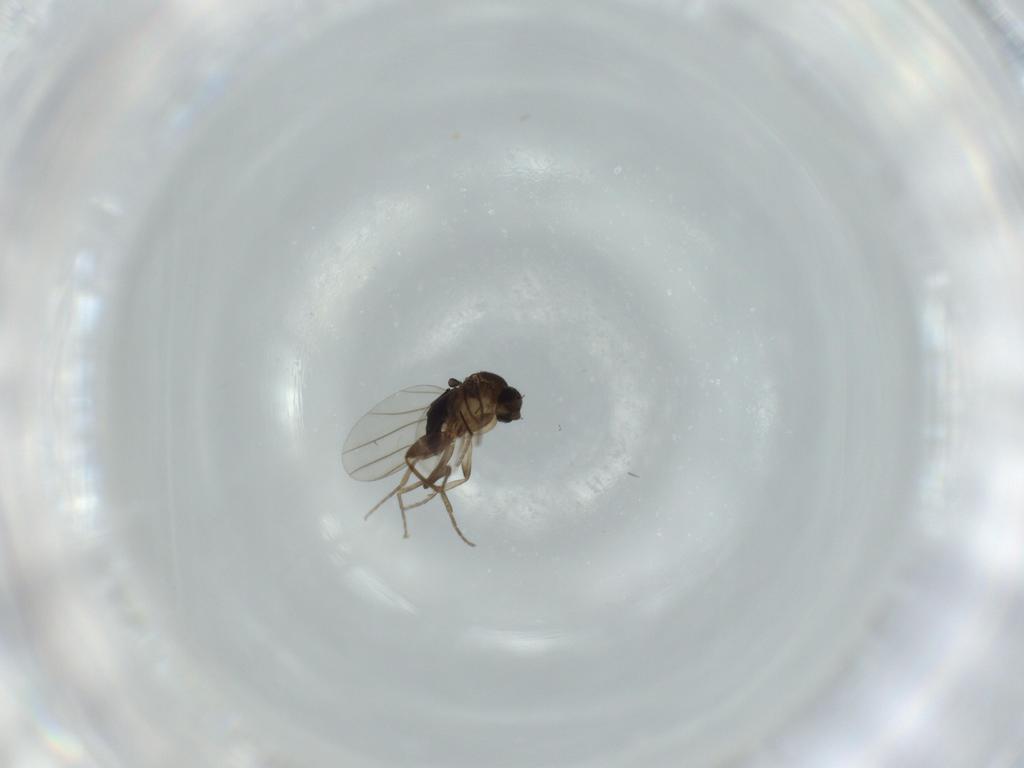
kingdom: Animalia
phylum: Arthropoda
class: Insecta
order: Diptera
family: Phoridae
